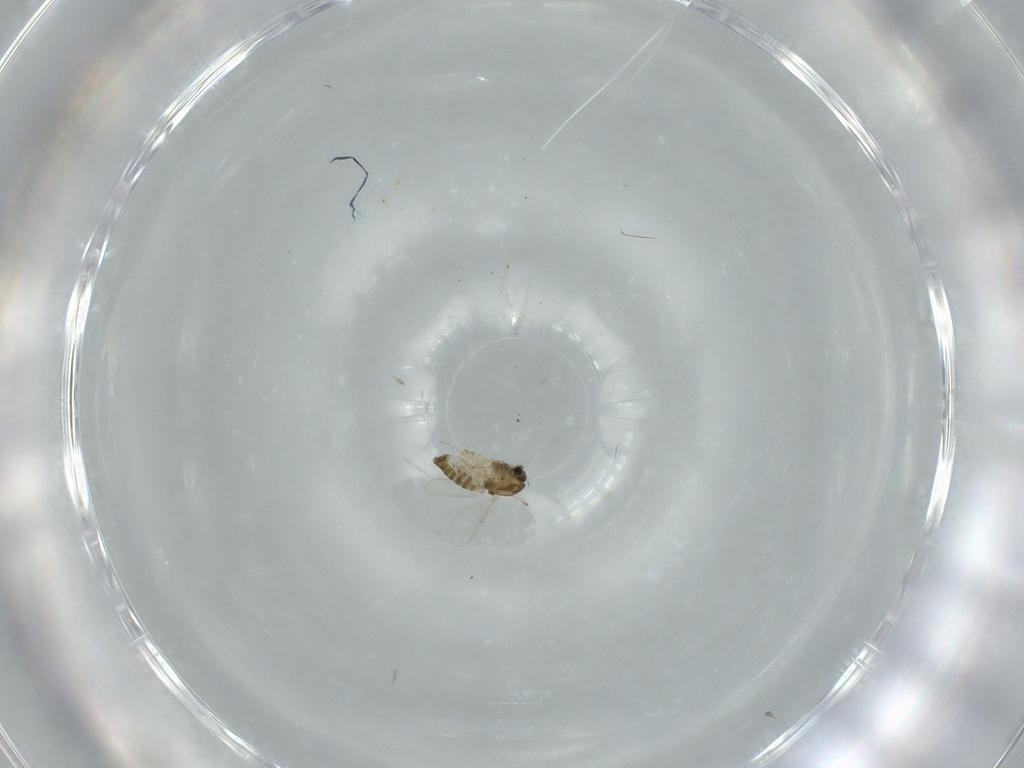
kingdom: Animalia
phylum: Arthropoda
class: Insecta
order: Diptera
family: Chironomidae
